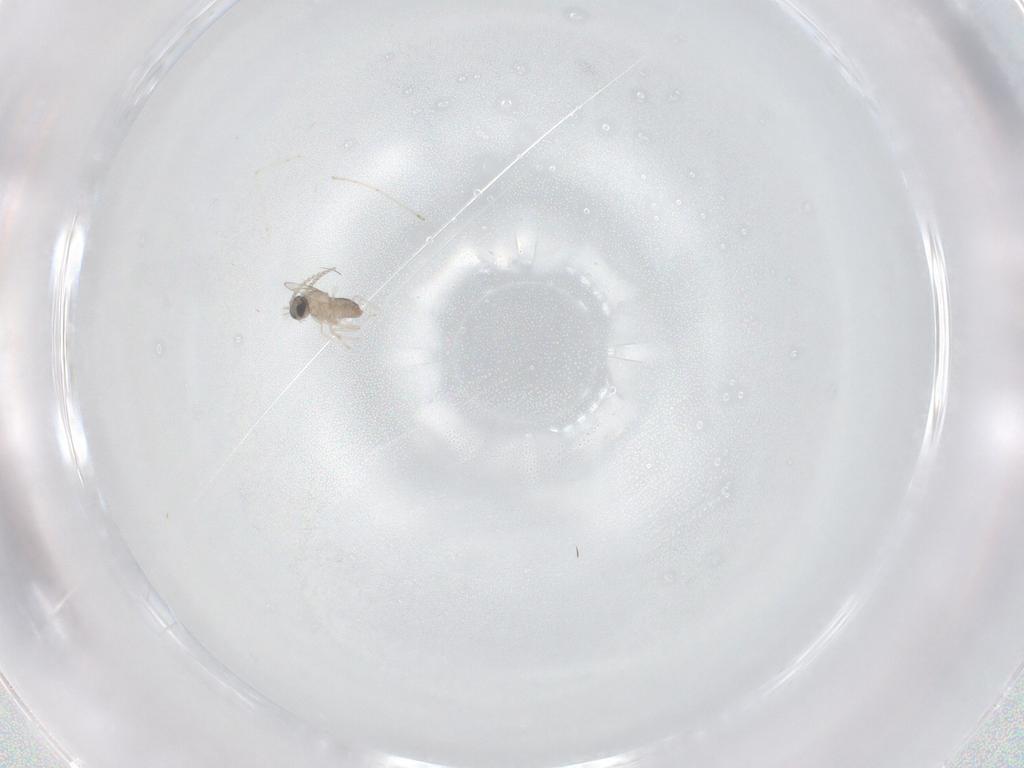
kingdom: Animalia
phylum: Arthropoda
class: Insecta
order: Diptera
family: Cecidomyiidae
